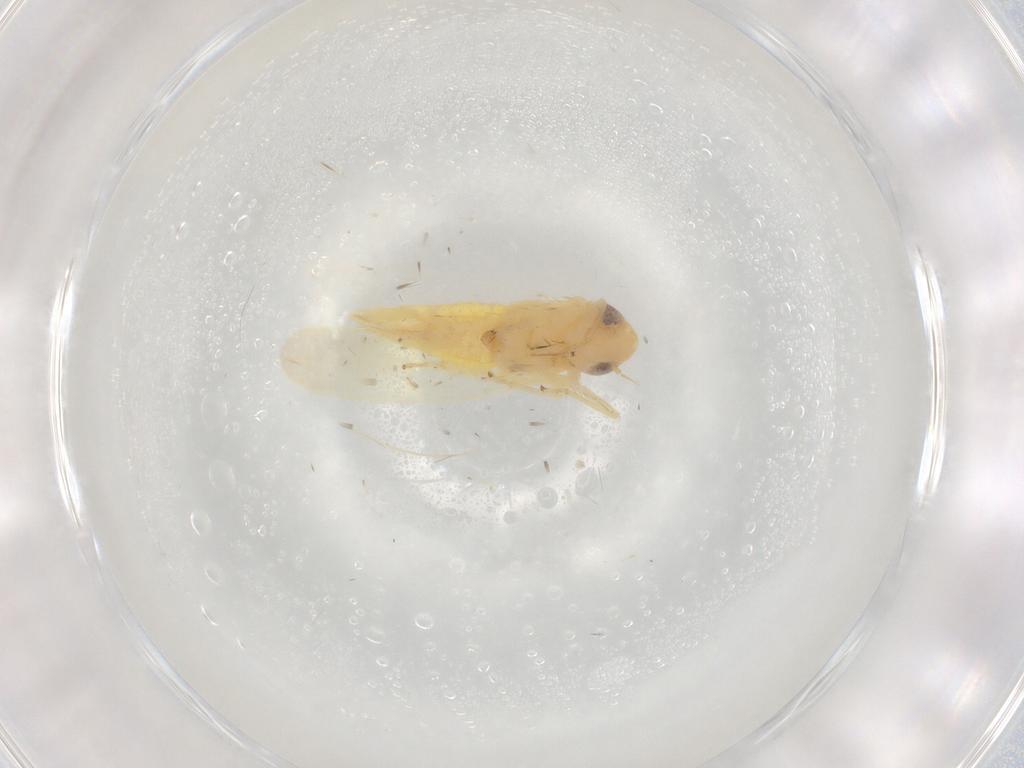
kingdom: Animalia
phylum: Arthropoda
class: Insecta
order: Hemiptera
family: Cicadellidae
